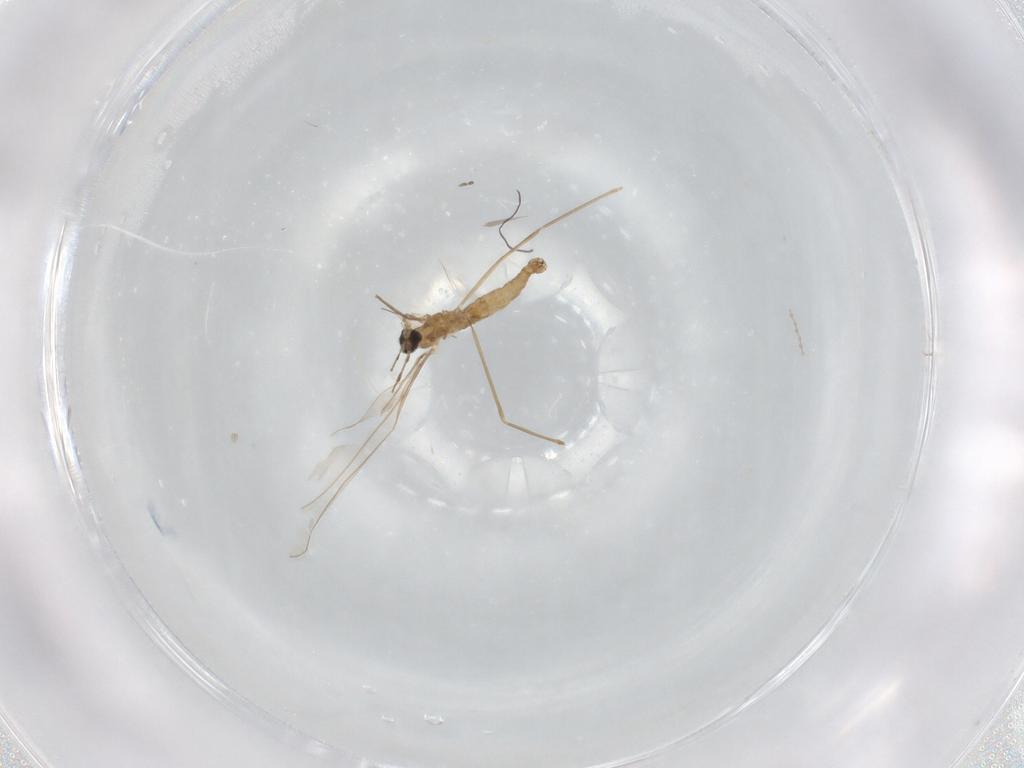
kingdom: Animalia
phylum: Arthropoda
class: Insecta
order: Diptera
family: Cecidomyiidae
